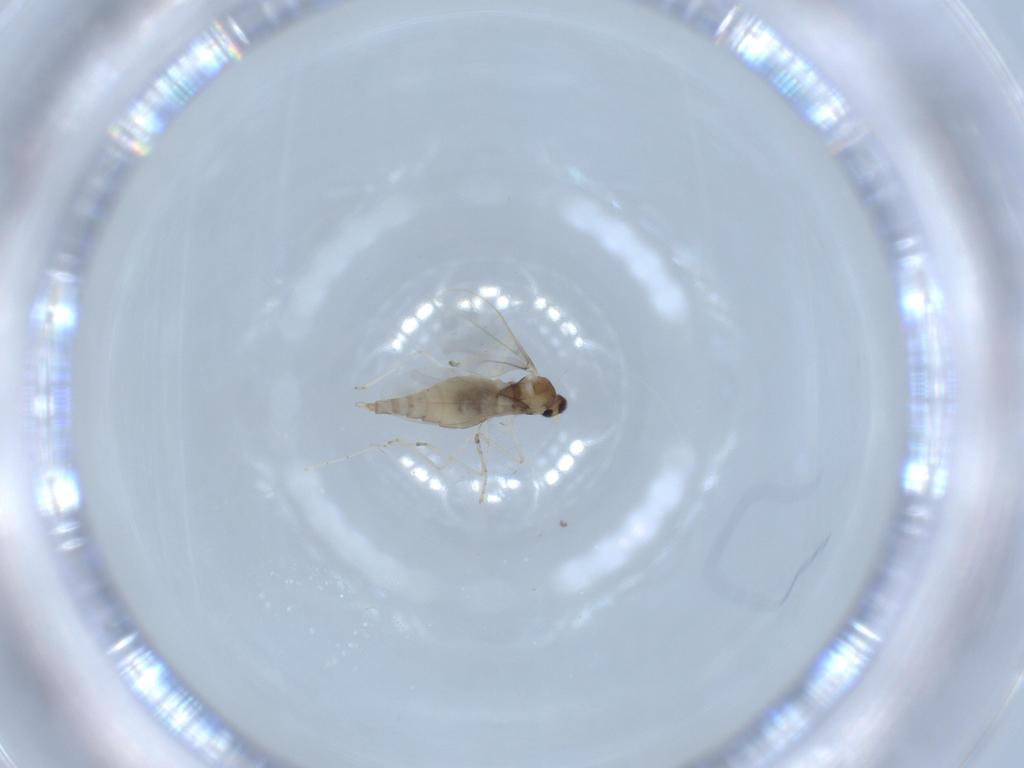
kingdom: Animalia
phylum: Arthropoda
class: Insecta
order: Diptera
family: Cecidomyiidae
